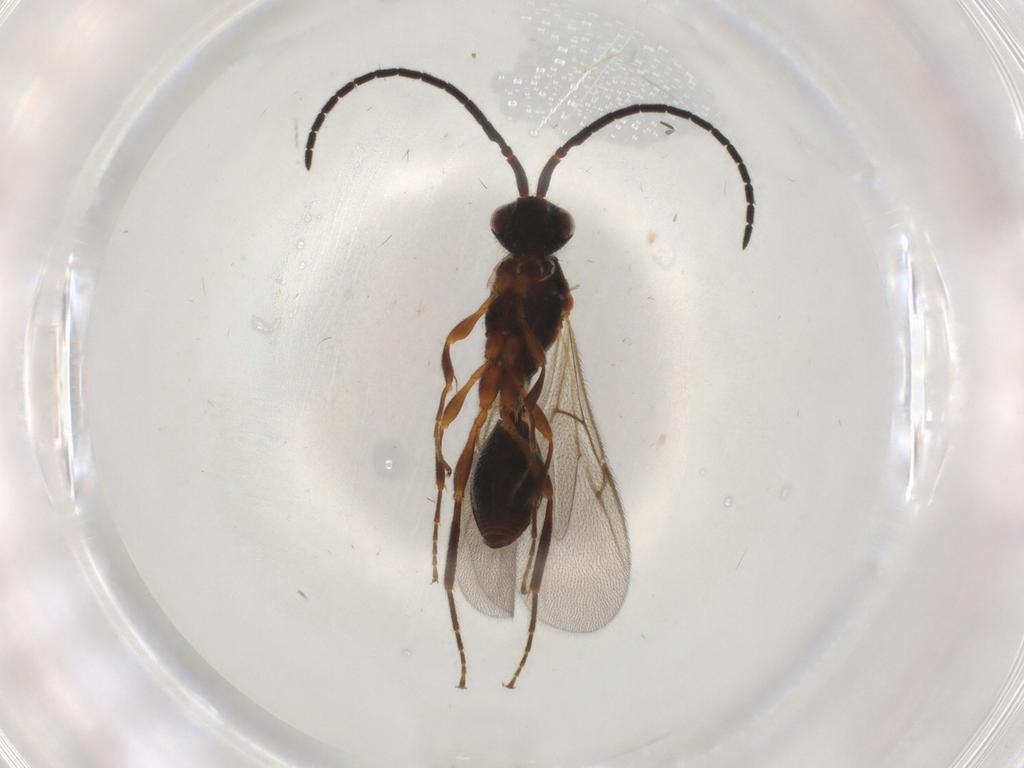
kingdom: Animalia
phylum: Arthropoda
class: Insecta
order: Hymenoptera
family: Diapriidae
